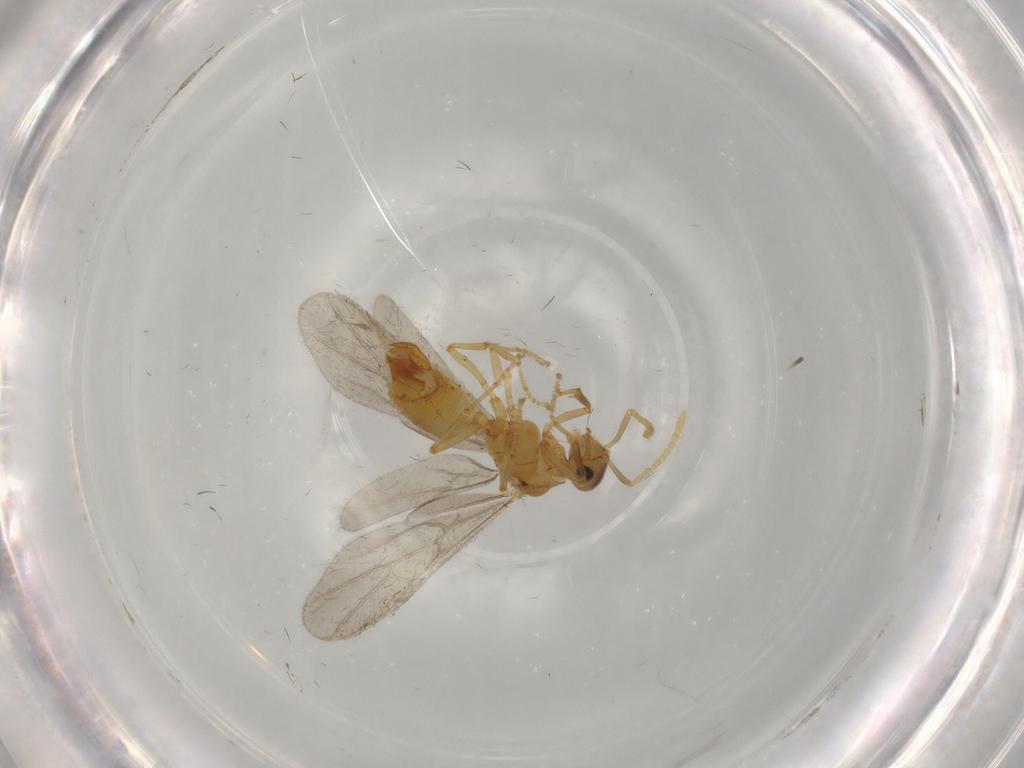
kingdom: Animalia
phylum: Arthropoda
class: Insecta
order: Hymenoptera
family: Formicidae
